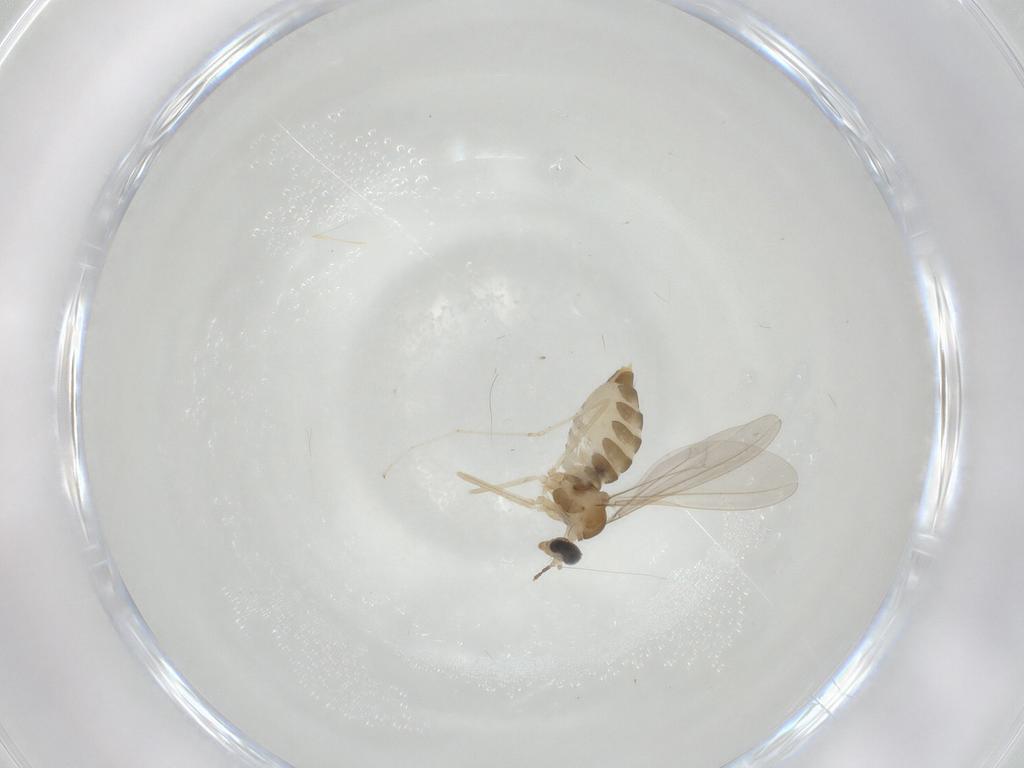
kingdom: Animalia
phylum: Arthropoda
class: Insecta
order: Diptera
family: Cecidomyiidae
